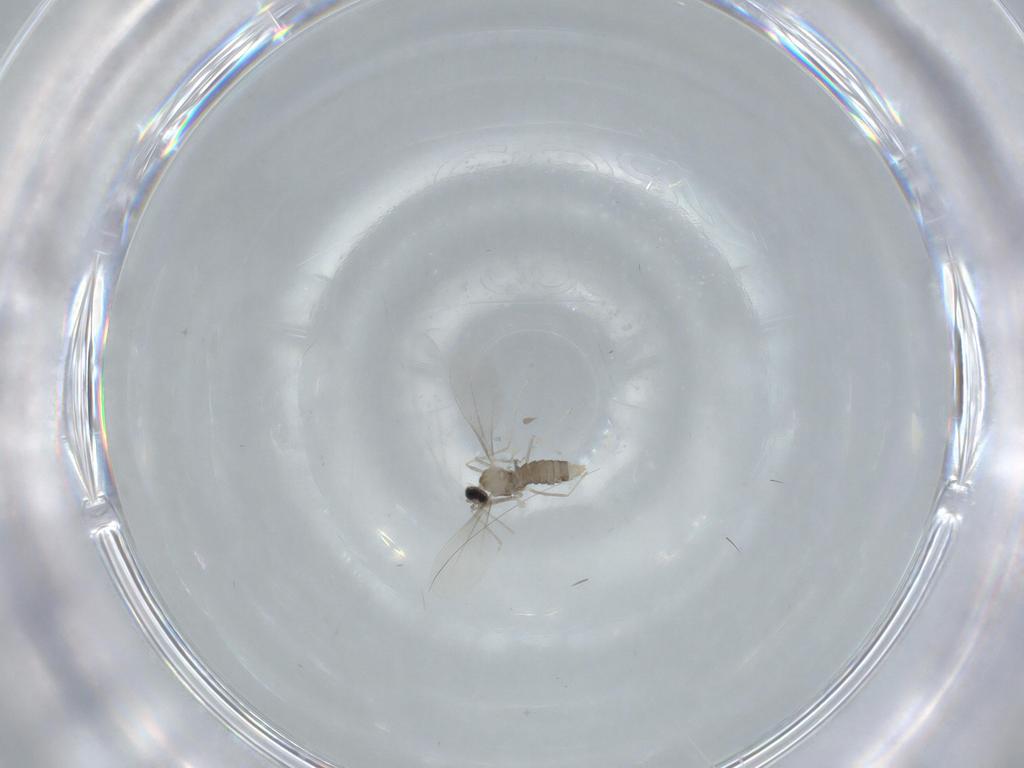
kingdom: Animalia
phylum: Arthropoda
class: Insecta
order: Diptera
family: Cecidomyiidae
